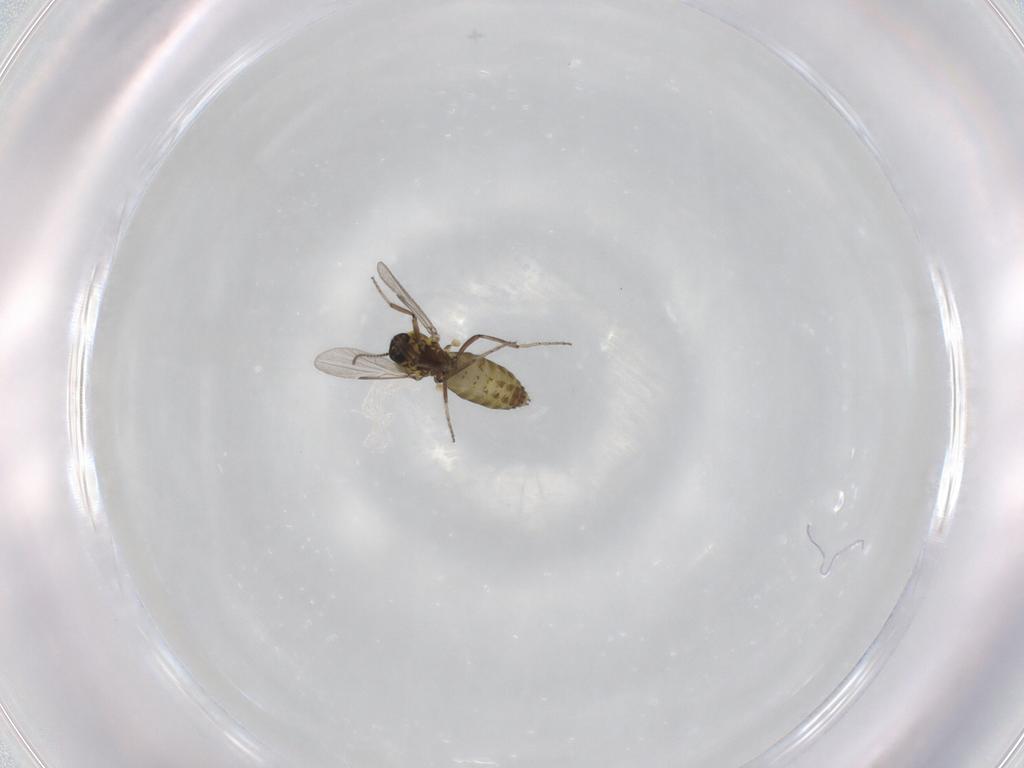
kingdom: Animalia
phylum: Arthropoda
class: Insecta
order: Diptera
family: Ceratopogonidae
